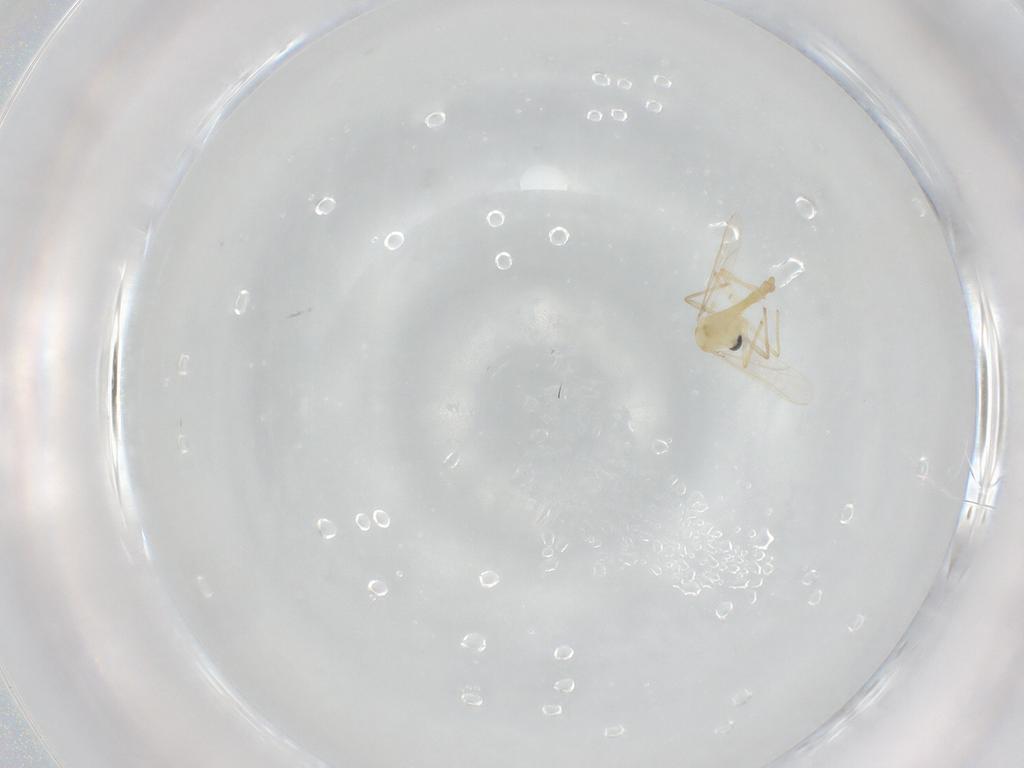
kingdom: Animalia
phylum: Arthropoda
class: Insecta
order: Diptera
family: Chironomidae
